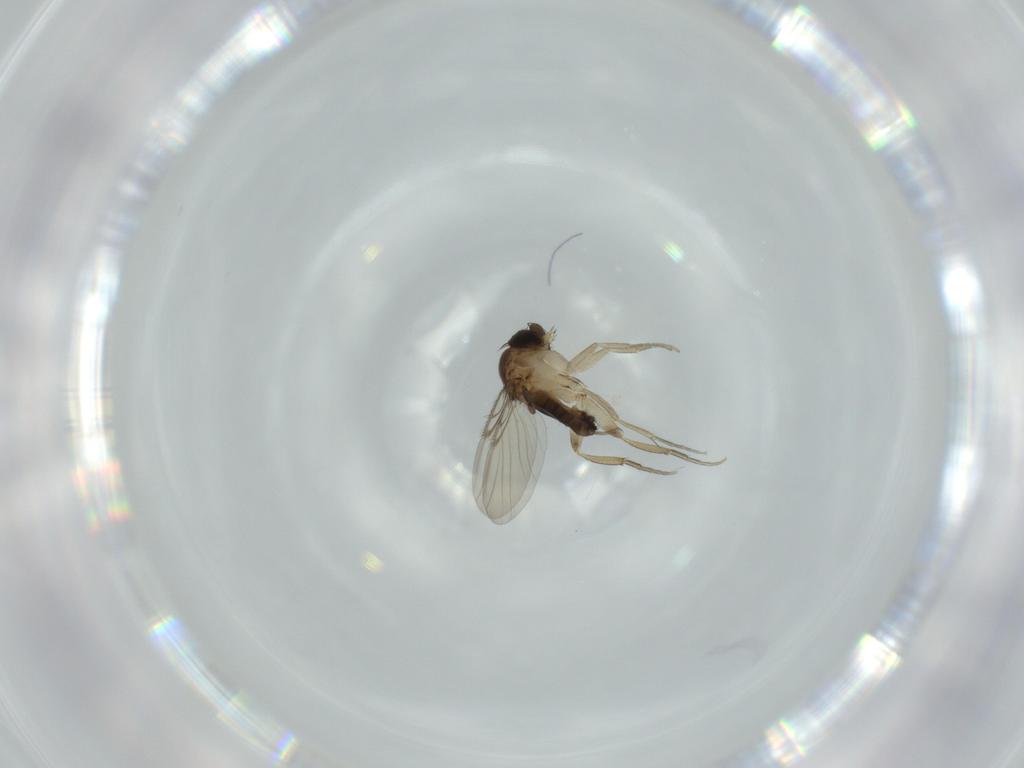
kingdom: Animalia
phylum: Arthropoda
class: Insecta
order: Diptera
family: Phoridae
